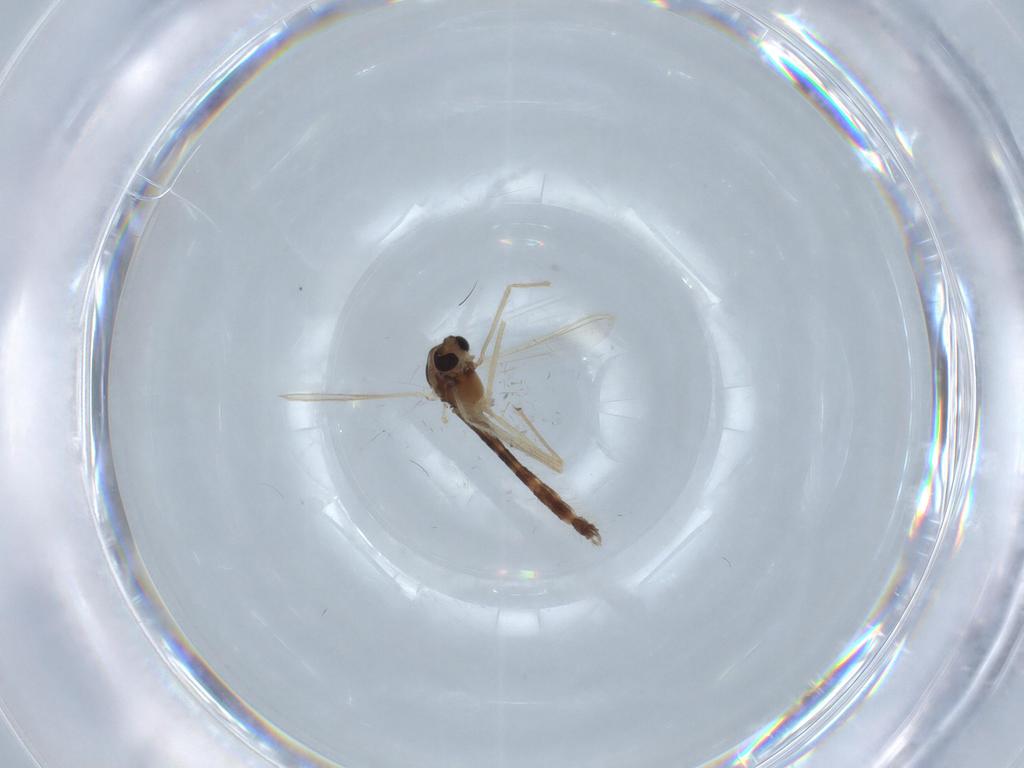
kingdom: Animalia
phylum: Arthropoda
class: Insecta
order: Diptera
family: Chironomidae
